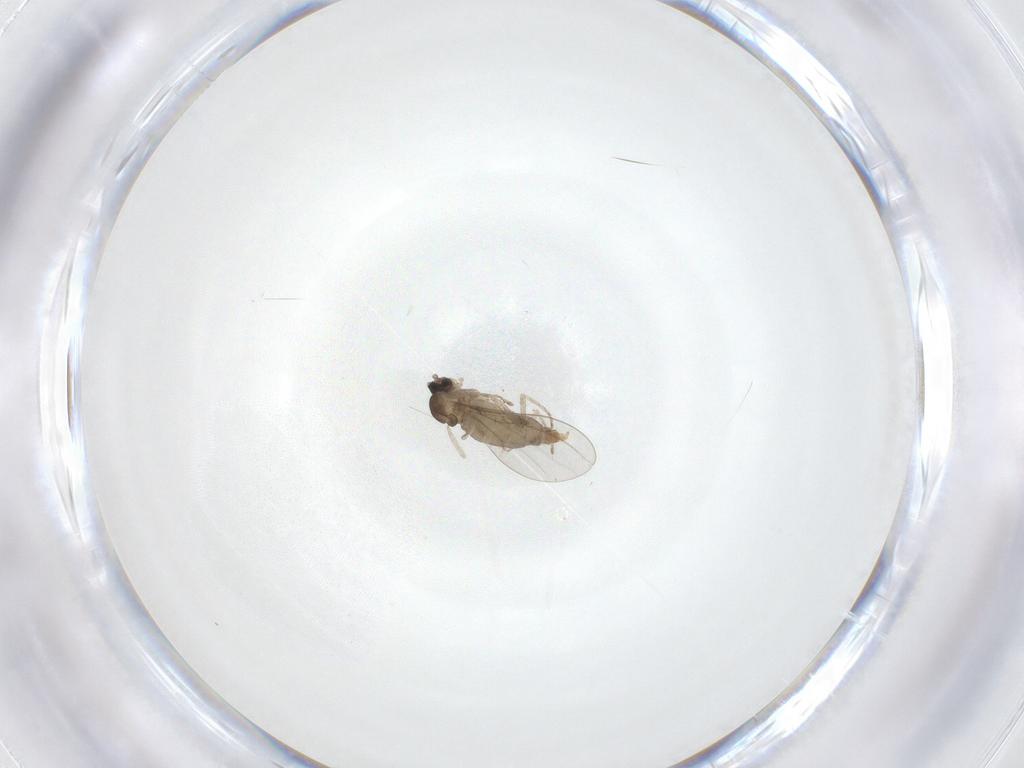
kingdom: Animalia
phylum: Arthropoda
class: Insecta
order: Diptera
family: Cecidomyiidae
